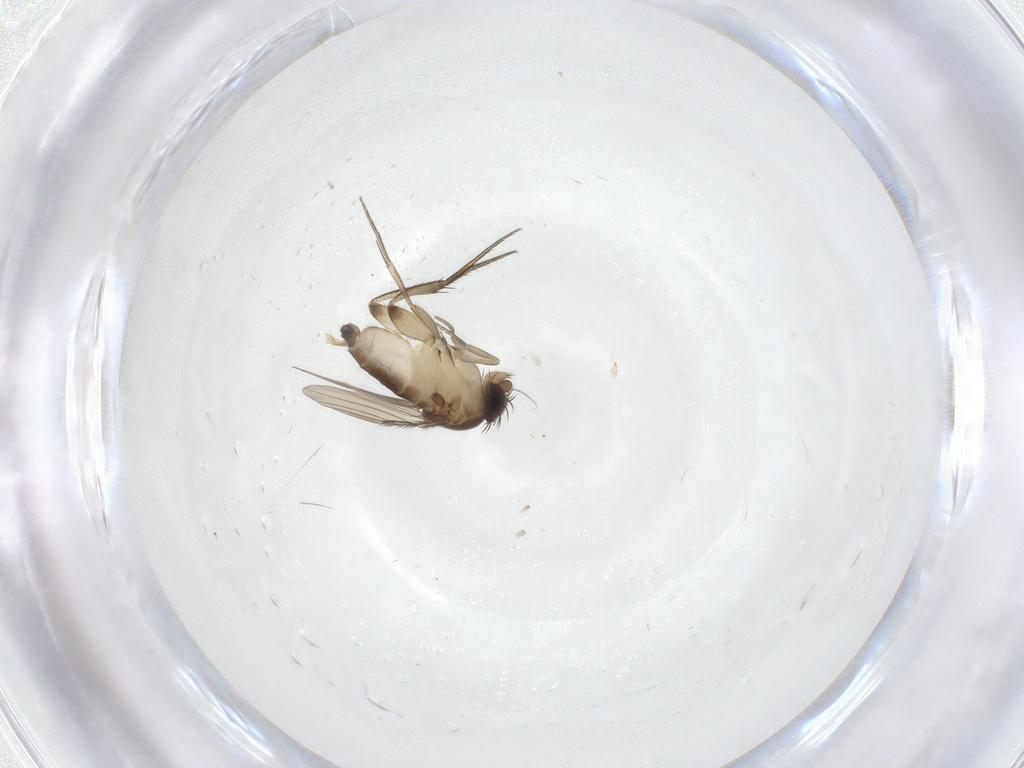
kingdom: Animalia
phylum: Arthropoda
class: Insecta
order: Diptera
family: Phoridae
